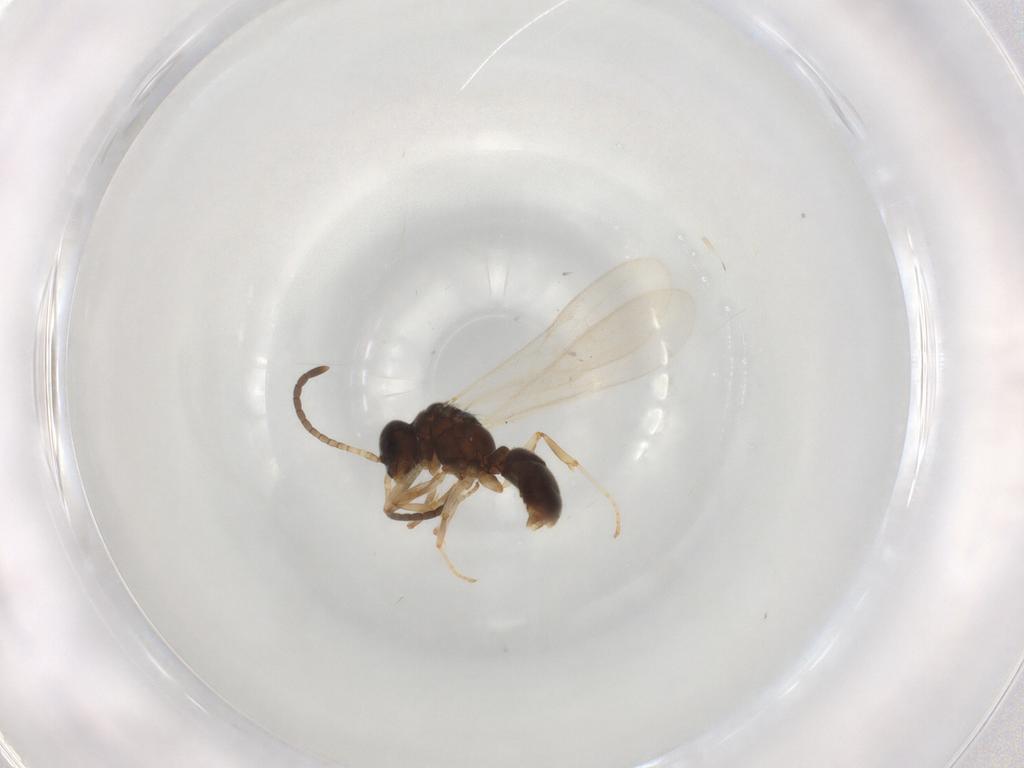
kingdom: Animalia
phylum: Arthropoda
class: Insecta
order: Hymenoptera
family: Formicidae
